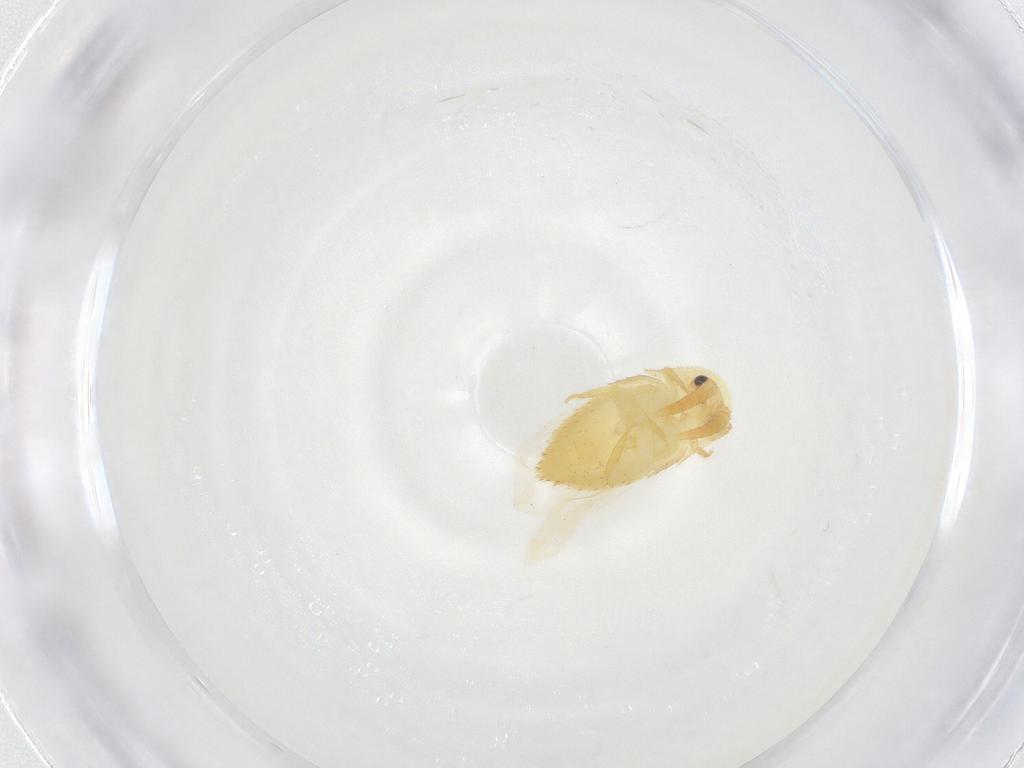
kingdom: Animalia
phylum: Arthropoda
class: Insecta
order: Hemiptera
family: Cicadellidae
